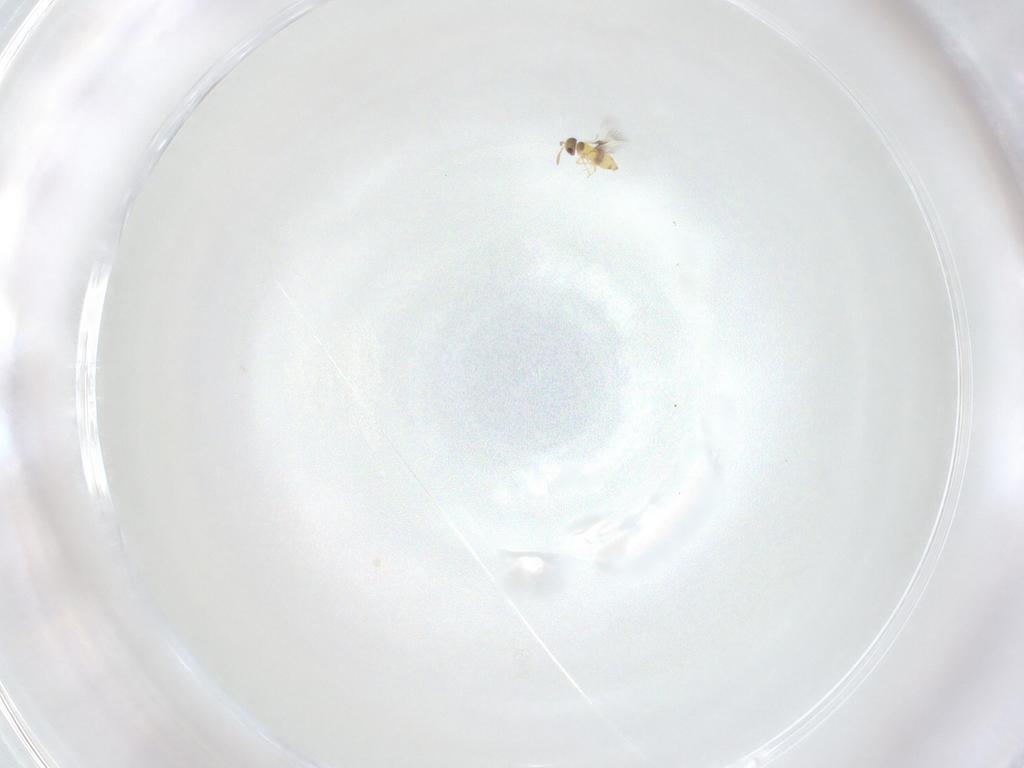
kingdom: Animalia
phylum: Arthropoda
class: Insecta
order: Hymenoptera
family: Signiphoridae
